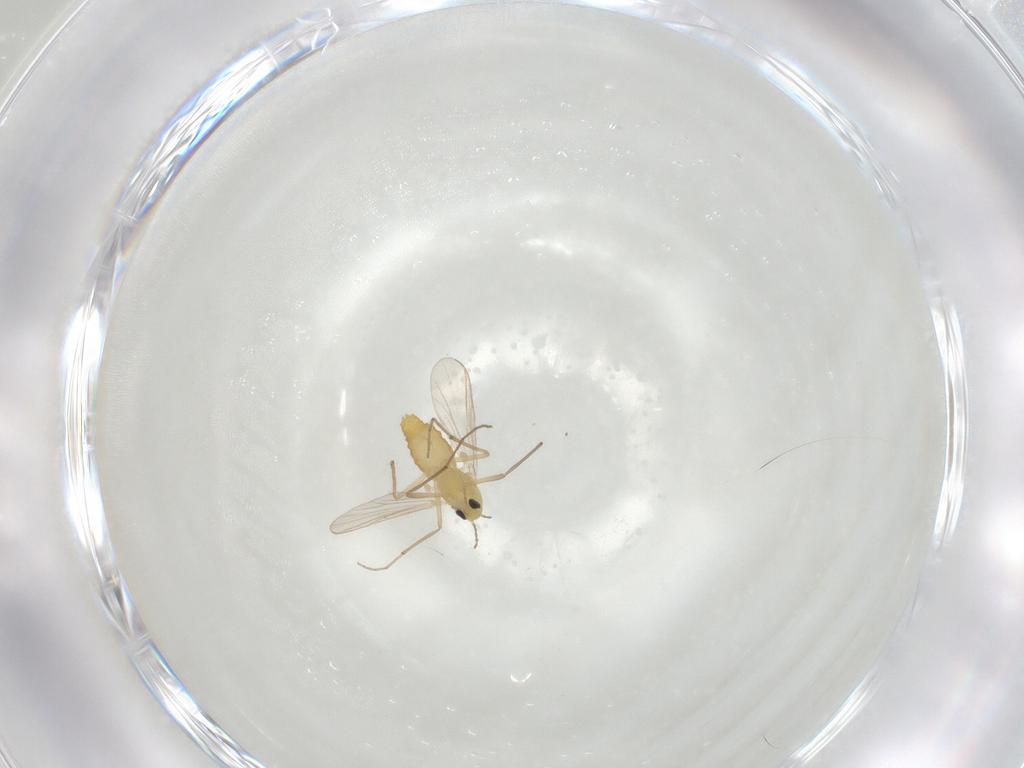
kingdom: Animalia
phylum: Arthropoda
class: Insecta
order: Diptera
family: Chironomidae
